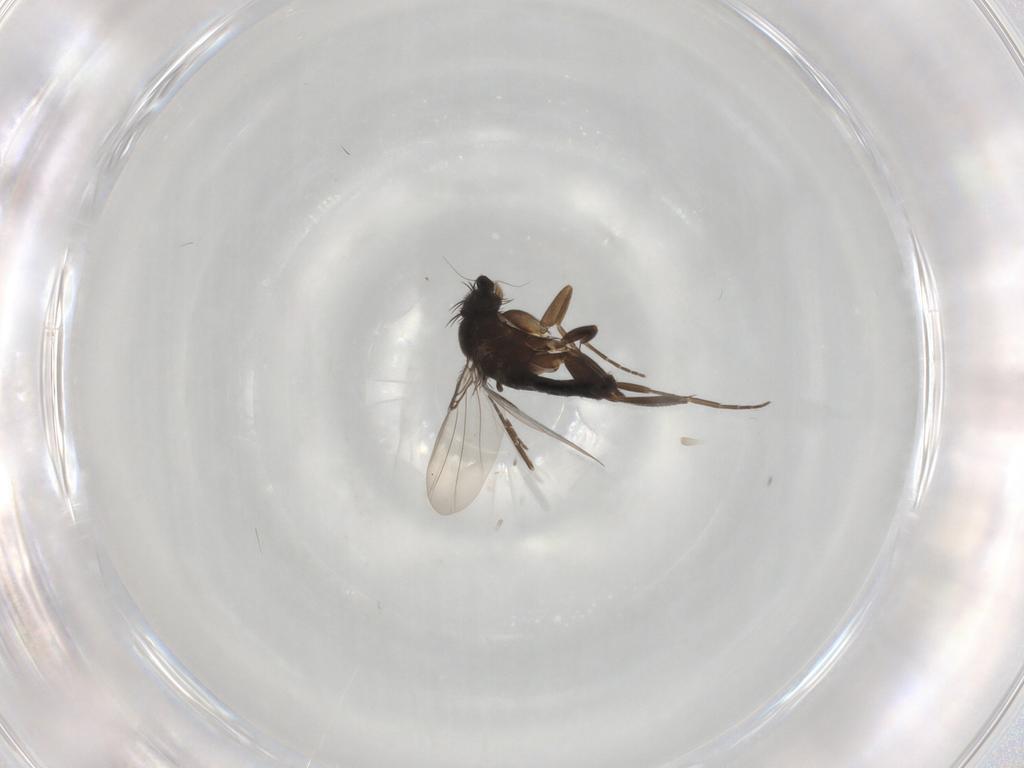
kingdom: Animalia
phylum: Arthropoda
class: Insecta
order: Diptera
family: Phoridae
